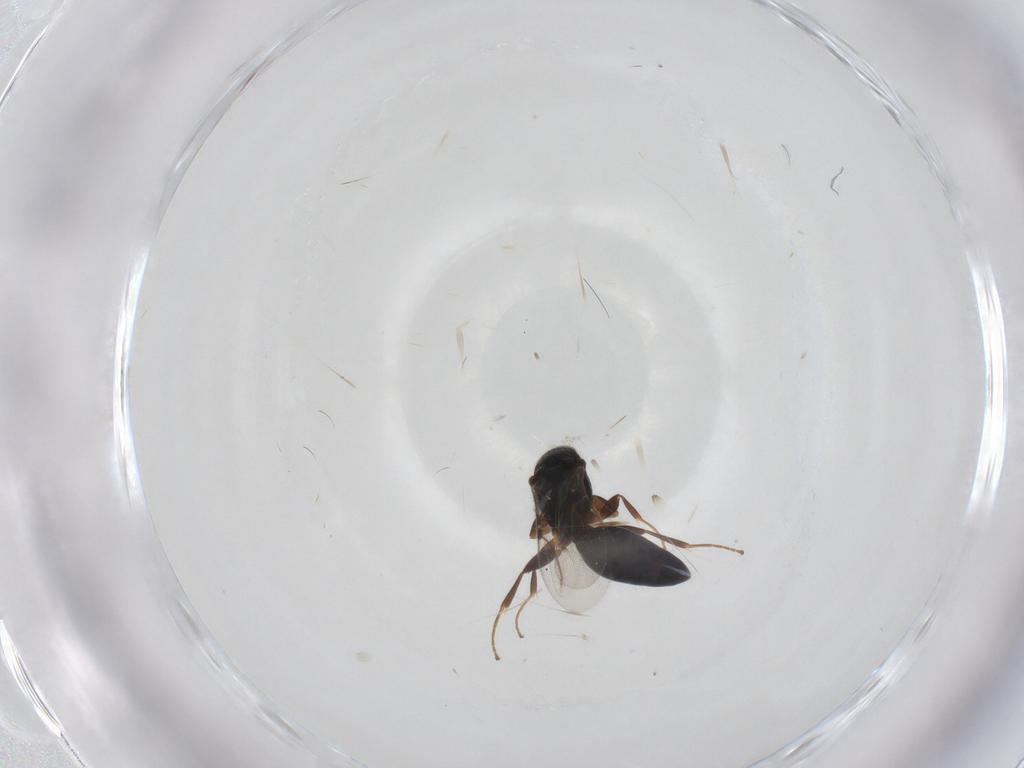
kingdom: Animalia
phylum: Arthropoda
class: Insecta
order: Hymenoptera
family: Bethylidae
